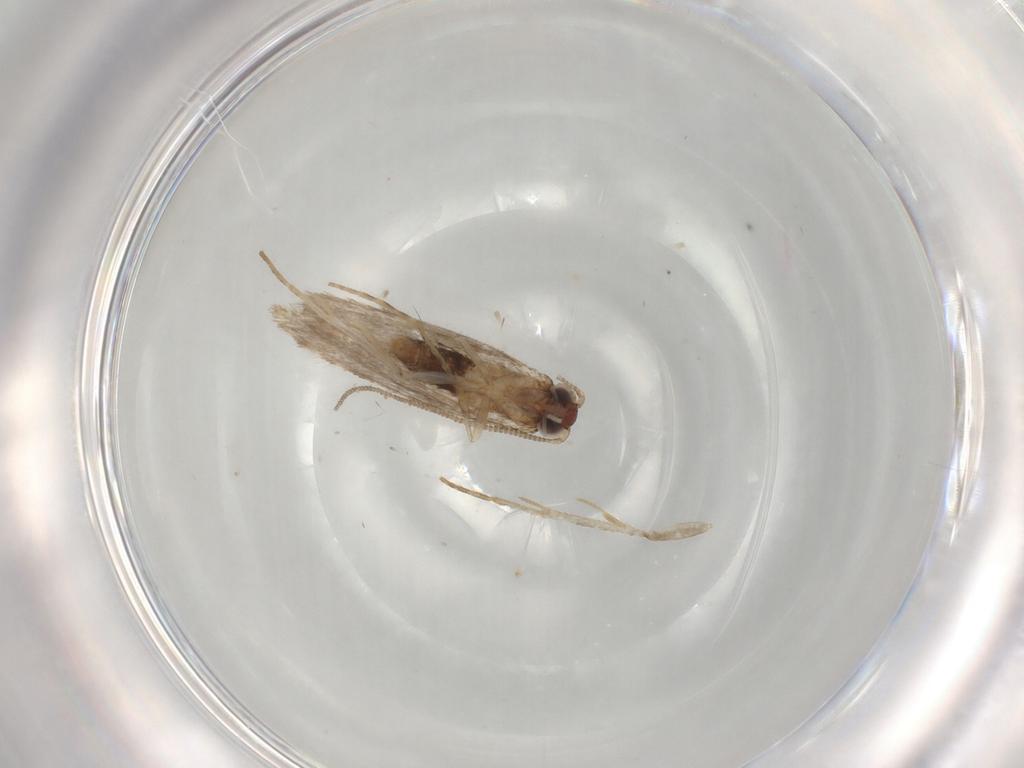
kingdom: Animalia
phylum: Arthropoda
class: Insecta
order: Lepidoptera
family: Tineidae
